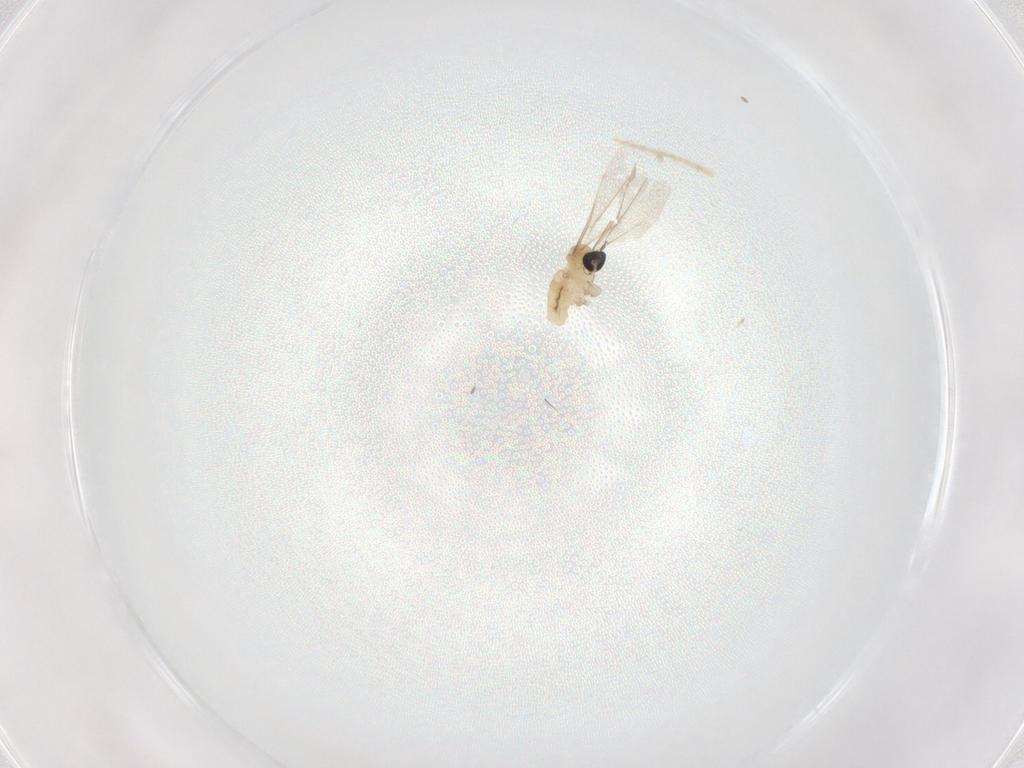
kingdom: Animalia
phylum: Arthropoda
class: Insecta
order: Diptera
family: Cecidomyiidae
